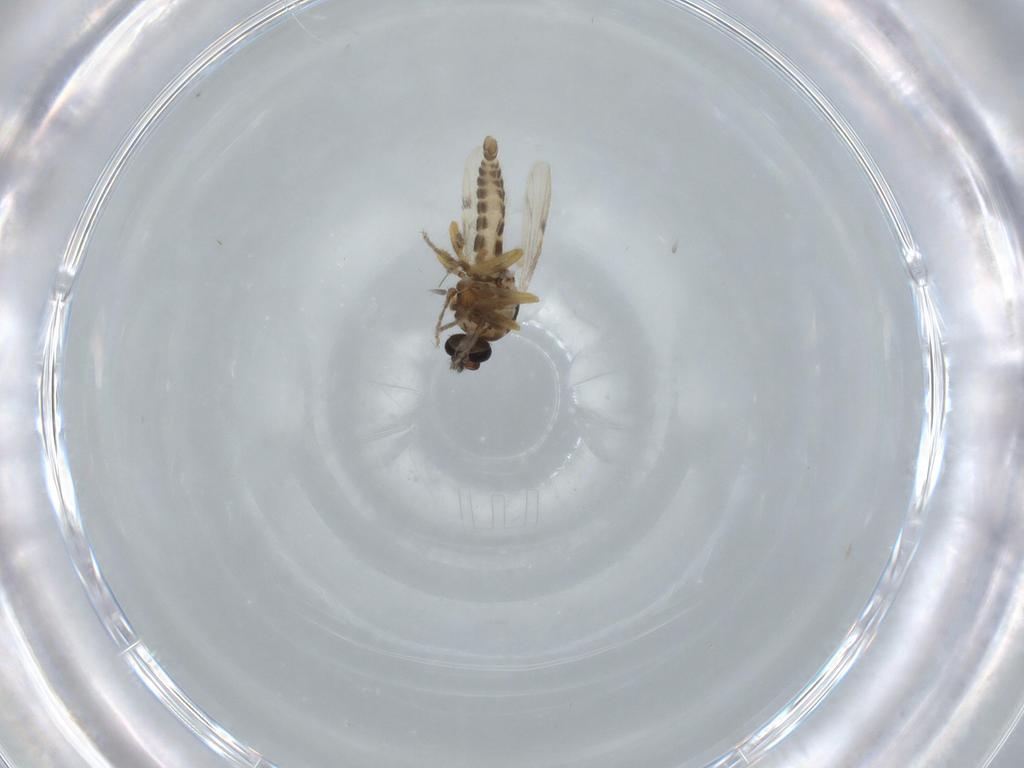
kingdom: Animalia
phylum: Arthropoda
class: Insecta
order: Diptera
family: Ceratopogonidae
